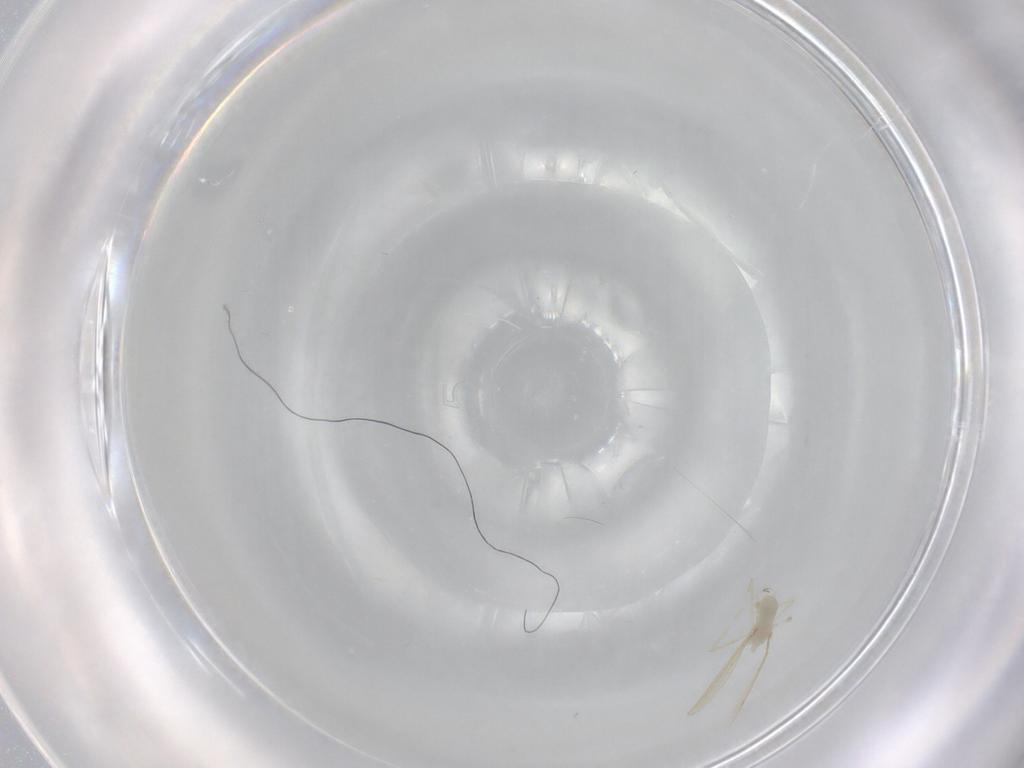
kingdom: Animalia
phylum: Arthropoda
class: Insecta
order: Diptera
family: Cecidomyiidae
